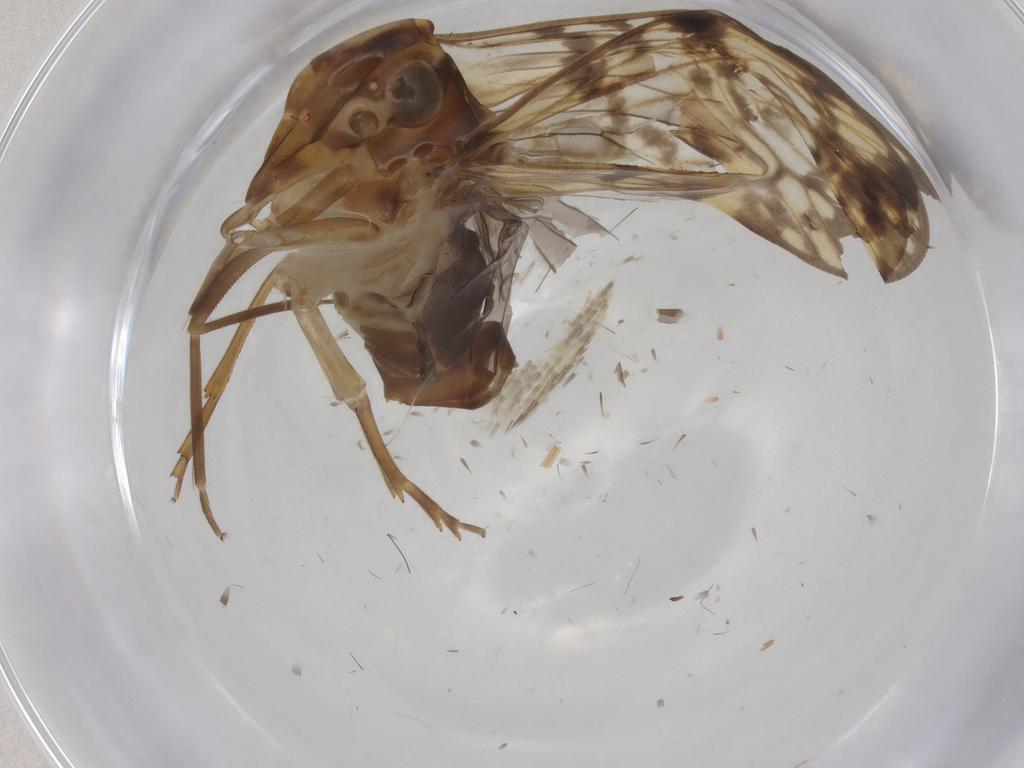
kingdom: Animalia
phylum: Arthropoda
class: Insecta
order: Hemiptera
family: Cixiidae
